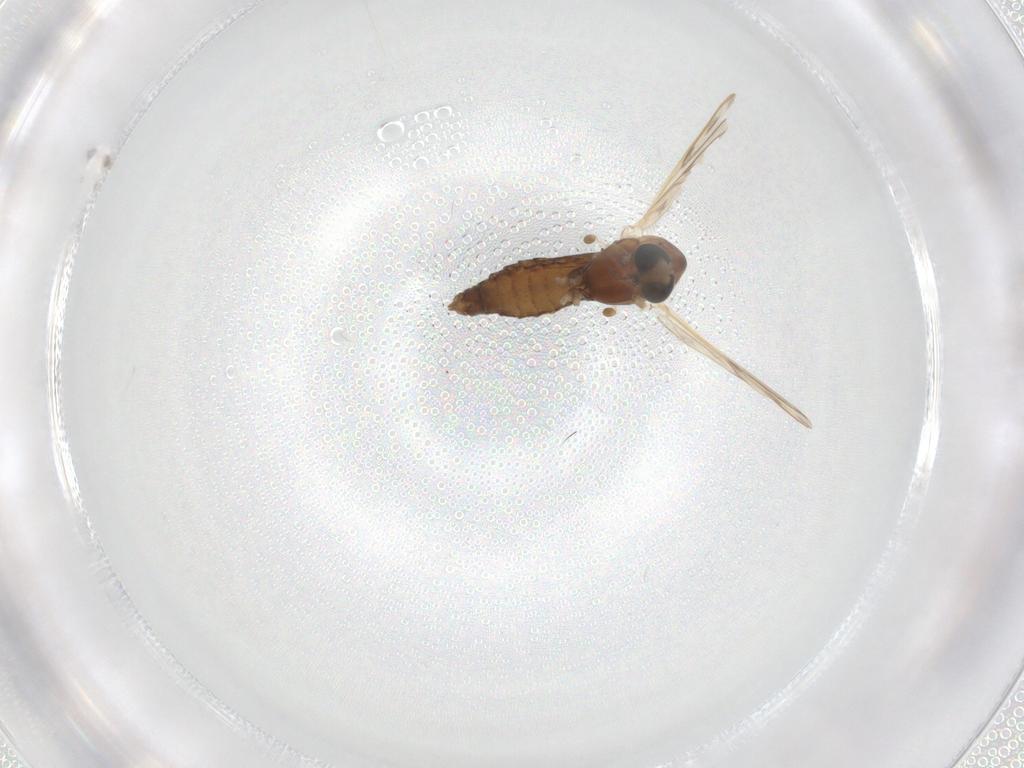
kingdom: Animalia
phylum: Arthropoda
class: Insecta
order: Diptera
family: Chironomidae
